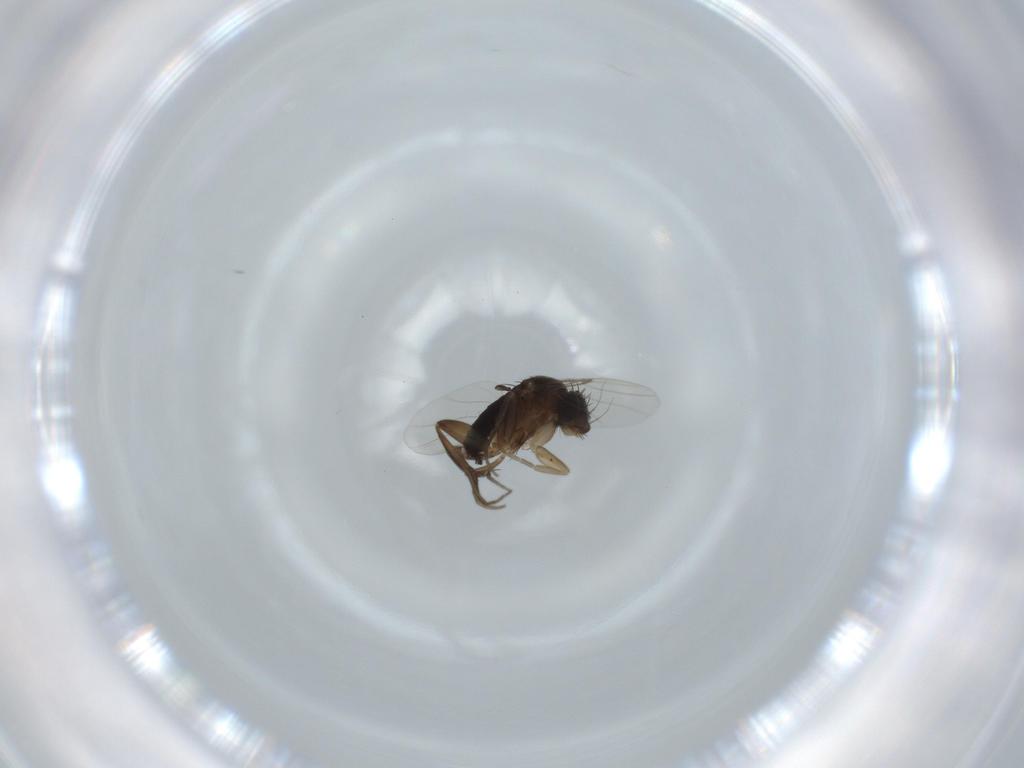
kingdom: Animalia
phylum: Arthropoda
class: Insecta
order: Diptera
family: Phoridae
